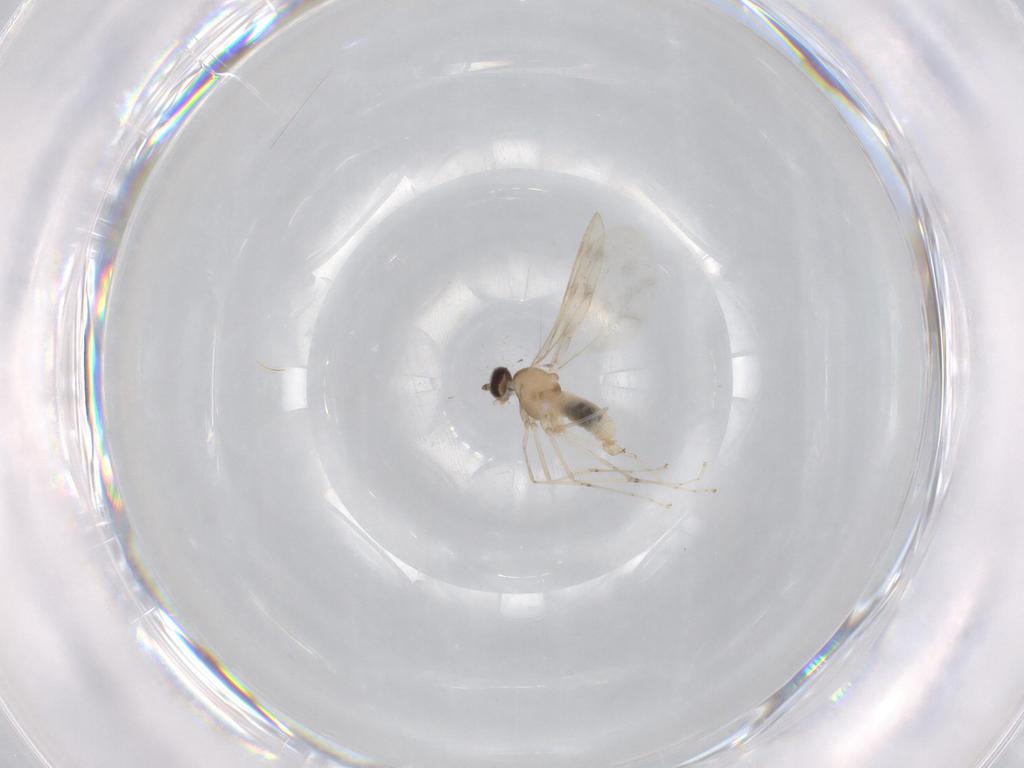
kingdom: Animalia
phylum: Arthropoda
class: Insecta
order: Diptera
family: Cecidomyiidae
